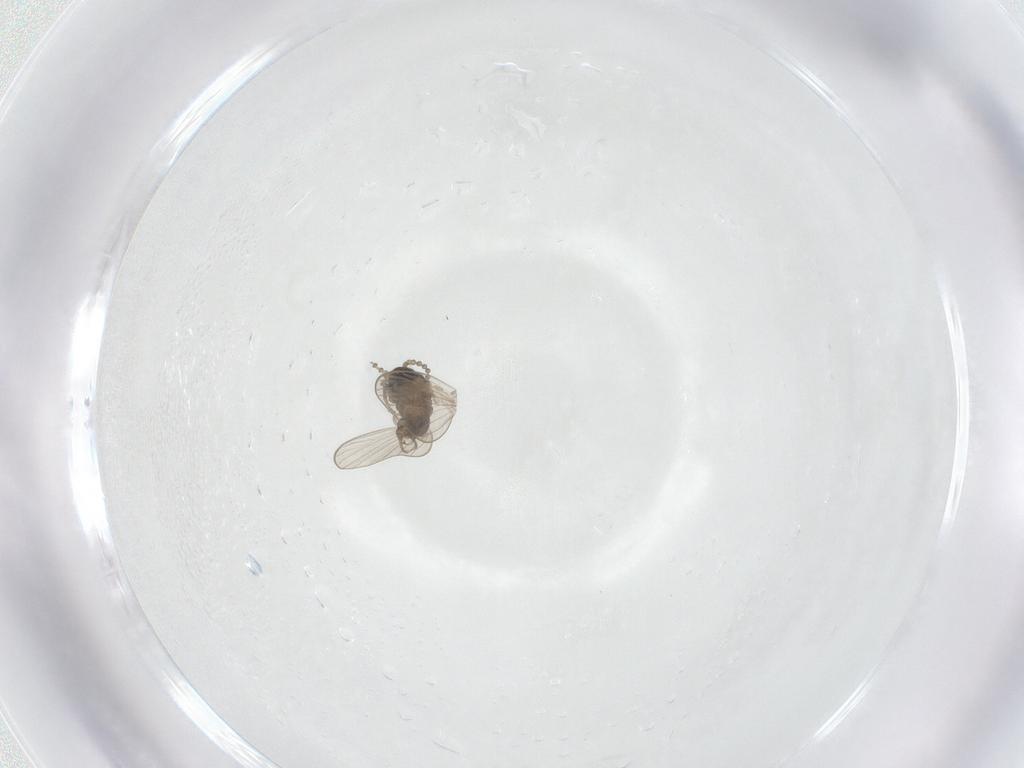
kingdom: Animalia
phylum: Arthropoda
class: Insecta
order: Diptera
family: Psychodidae
